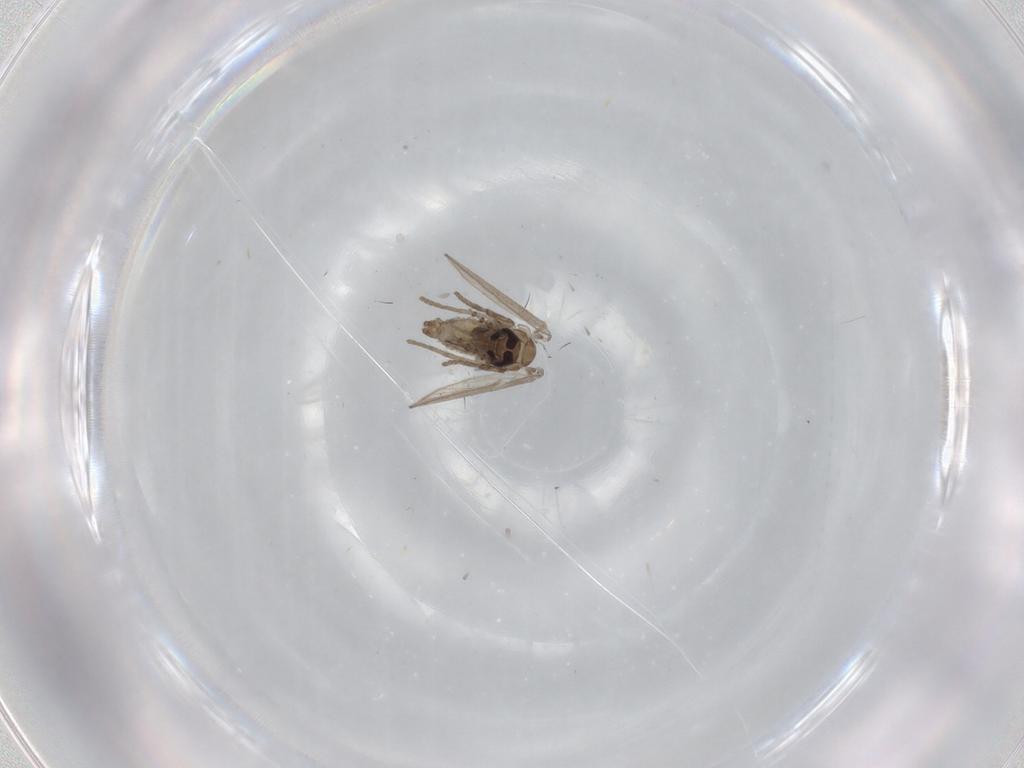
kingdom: Animalia
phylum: Arthropoda
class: Insecta
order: Diptera
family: Psychodidae
